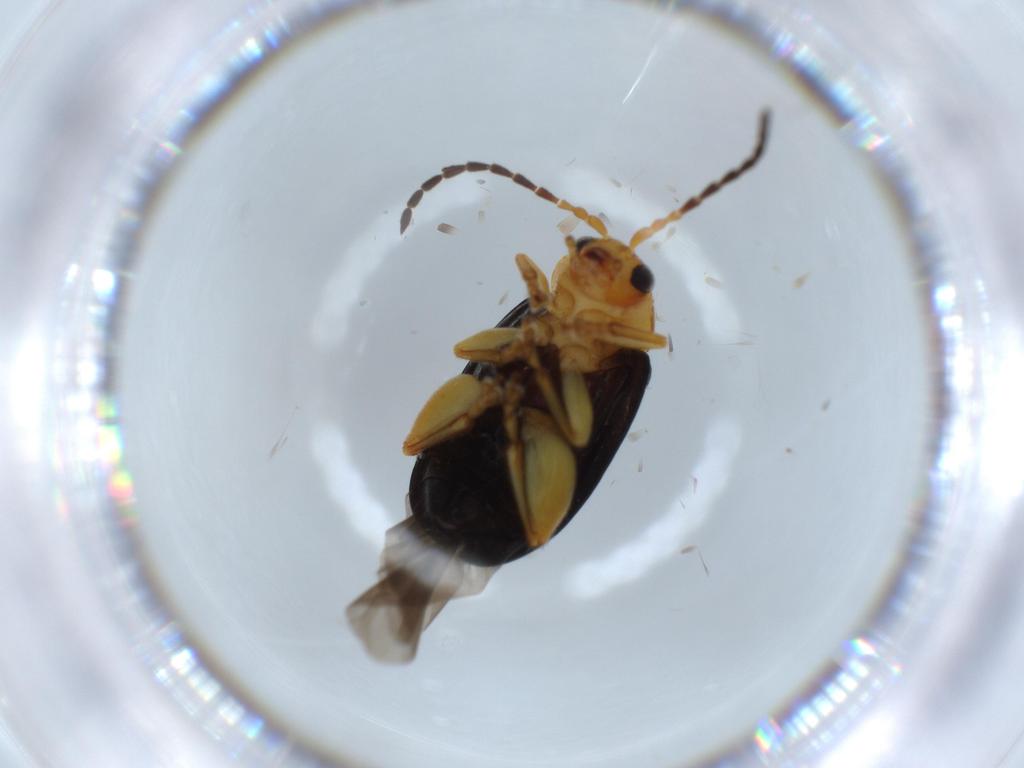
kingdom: Animalia
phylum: Arthropoda
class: Insecta
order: Coleoptera
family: Chrysomelidae
